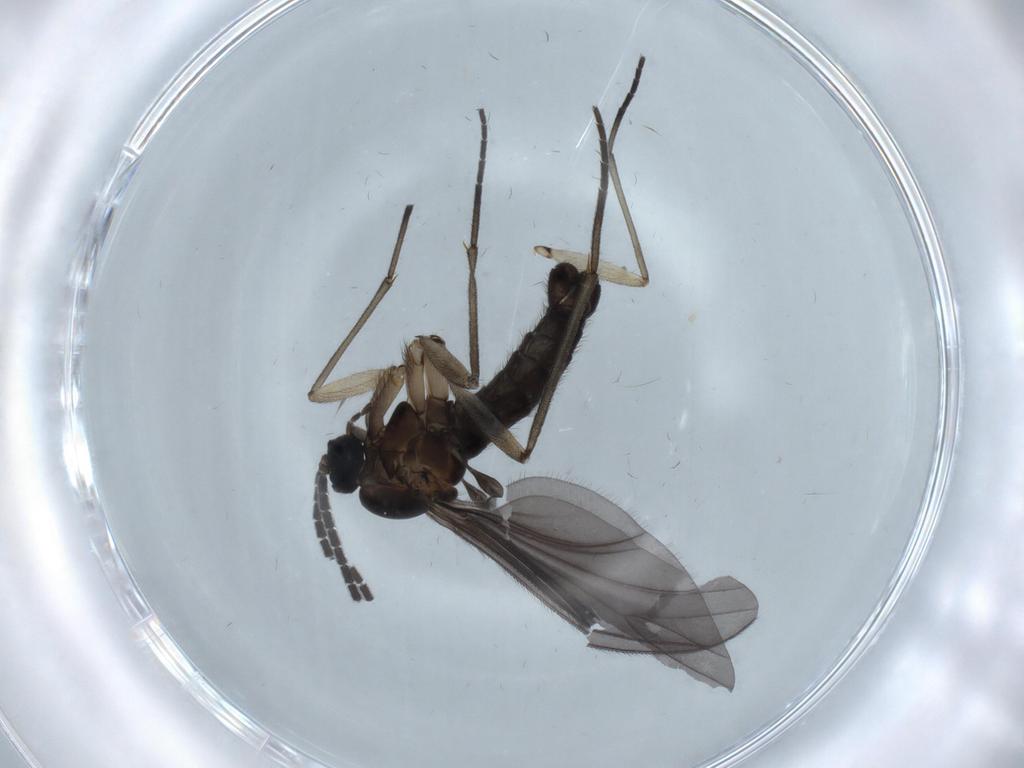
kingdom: Animalia
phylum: Arthropoda
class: Insecta
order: Diptera
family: Sciaridae
